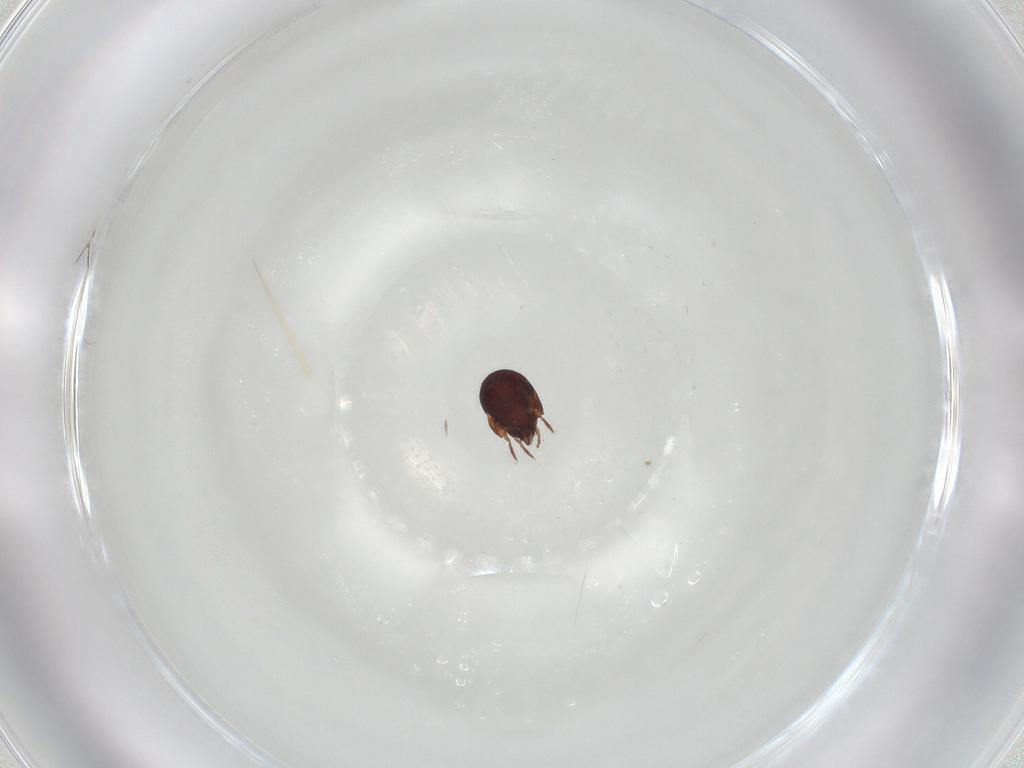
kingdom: Animalia
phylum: Arthropoda
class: Arachnida
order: Sarcoptiformes
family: Humerobatidae
